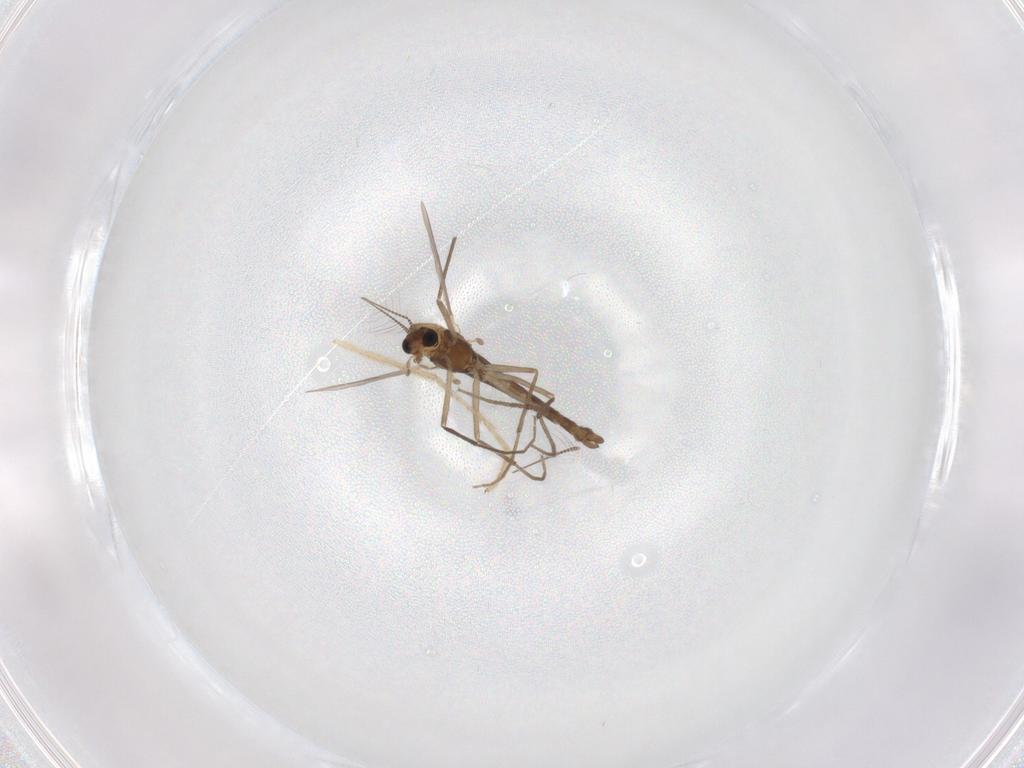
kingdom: Animalia
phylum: Arthropoda
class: Insecta
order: Diptera
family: Chironomidae
